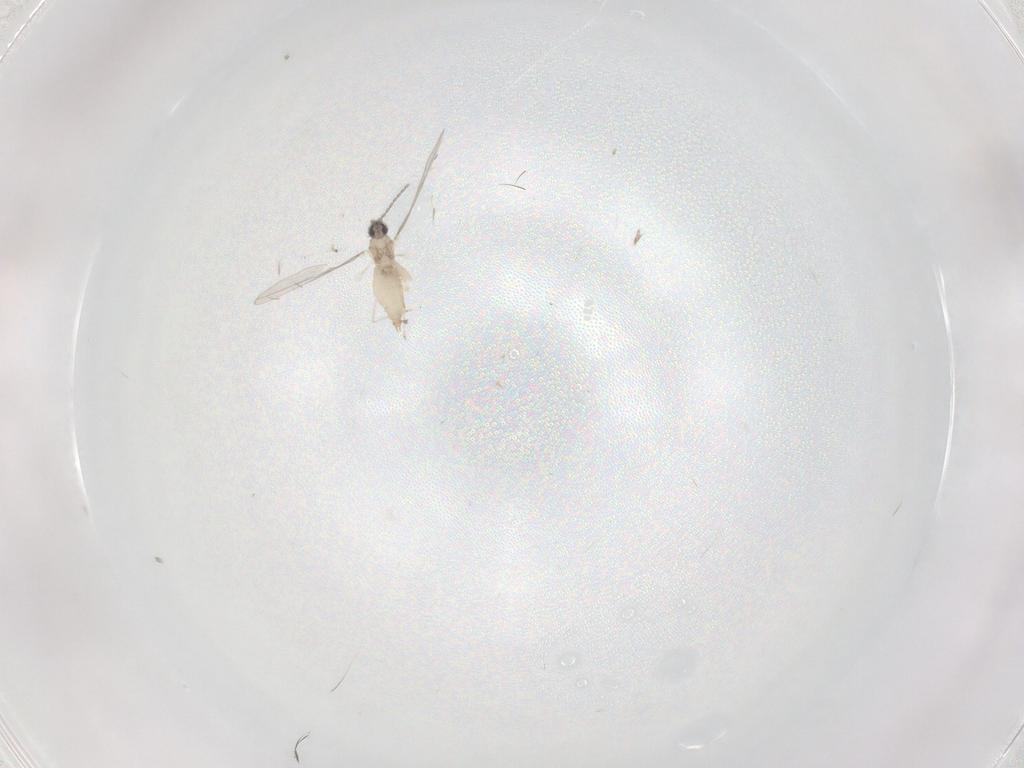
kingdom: Animalia
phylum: Arthropoda
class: Insecta
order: Diptera
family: Cecidomyiidae
